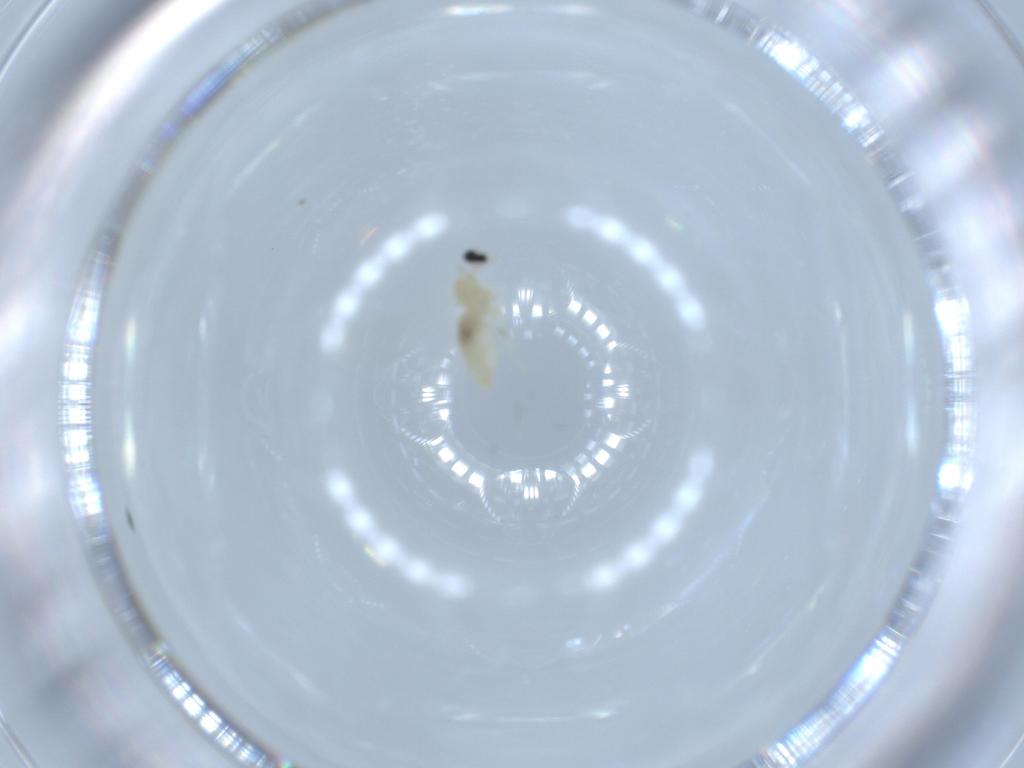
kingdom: Animalia
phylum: Arthropoda
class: Insecta
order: Diptera
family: Cecidomyiidae
